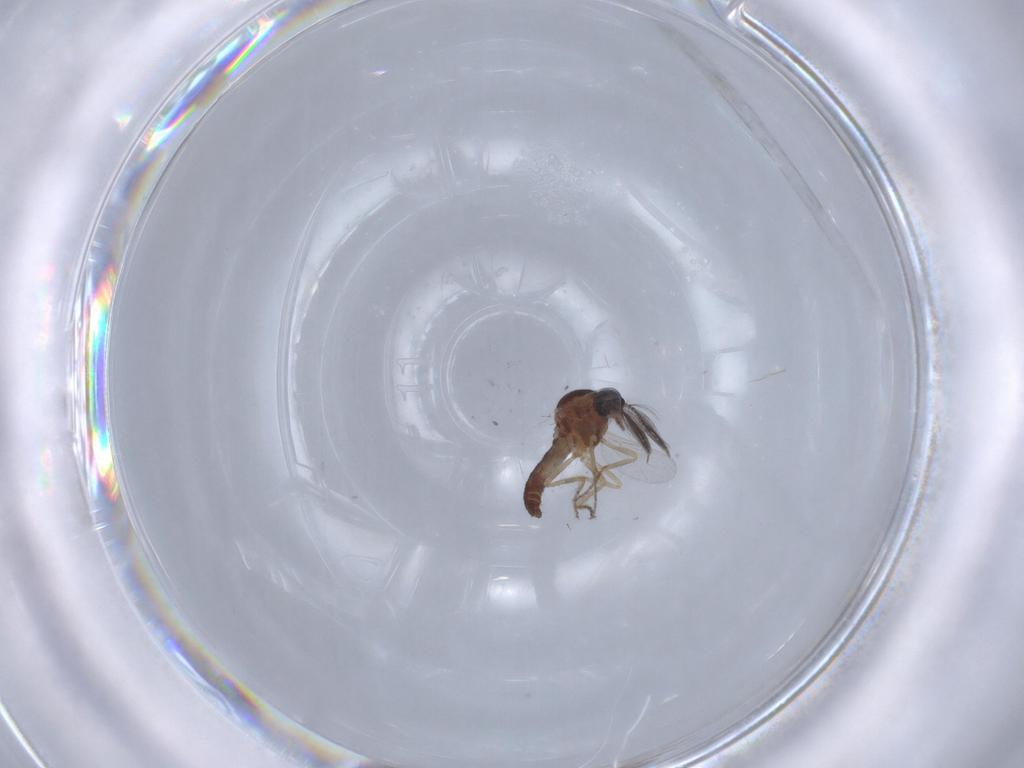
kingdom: Animalia
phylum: Arthropoda
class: Insecta
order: Diptera
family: Ceratopogonidae
